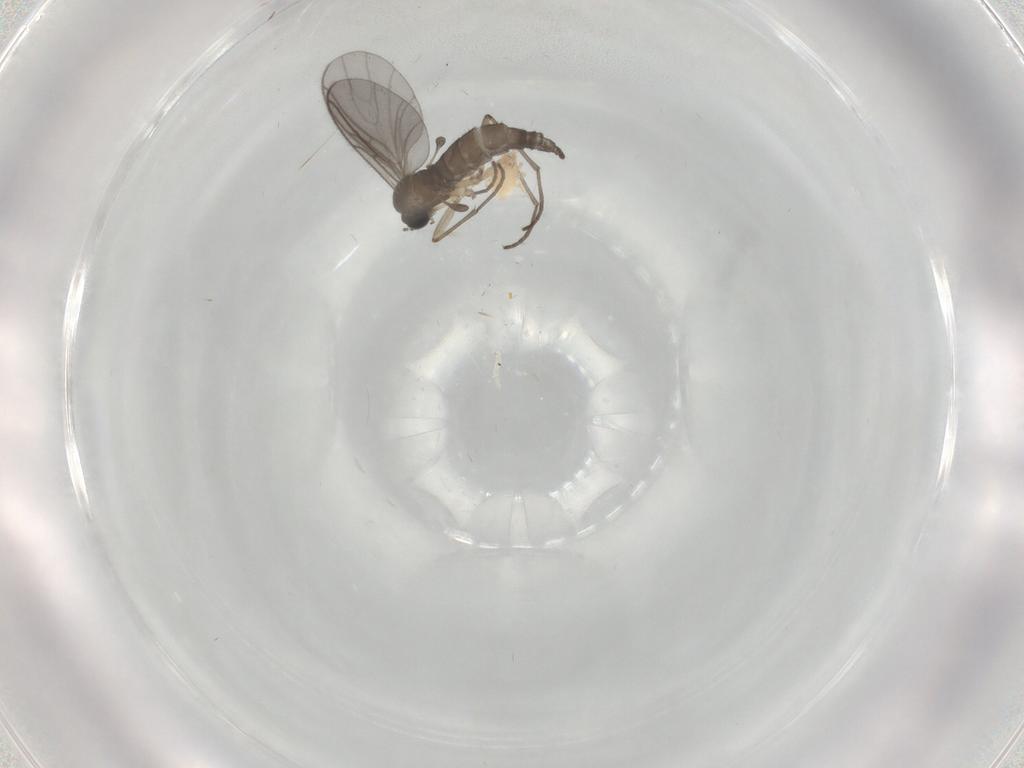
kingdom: Animalia
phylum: Arthropoda
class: Insecta
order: Diptera
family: Sciaridae
